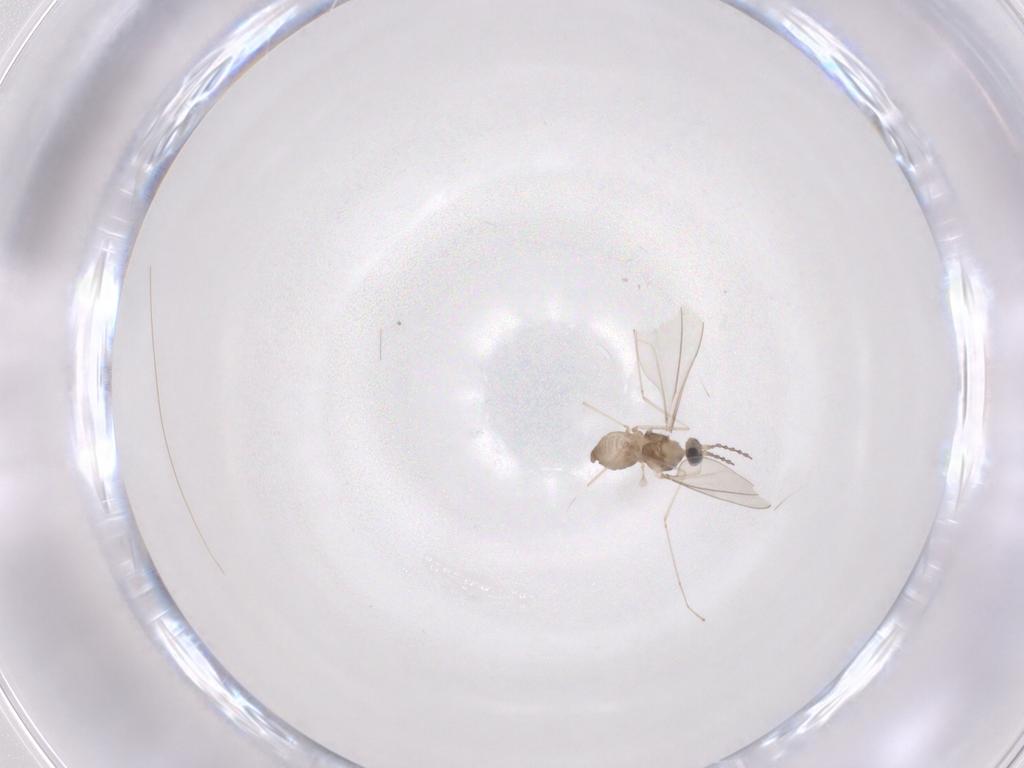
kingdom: Animalia
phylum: Arthropoda
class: Insecta
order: Diptera
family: Cecidomyiidae
